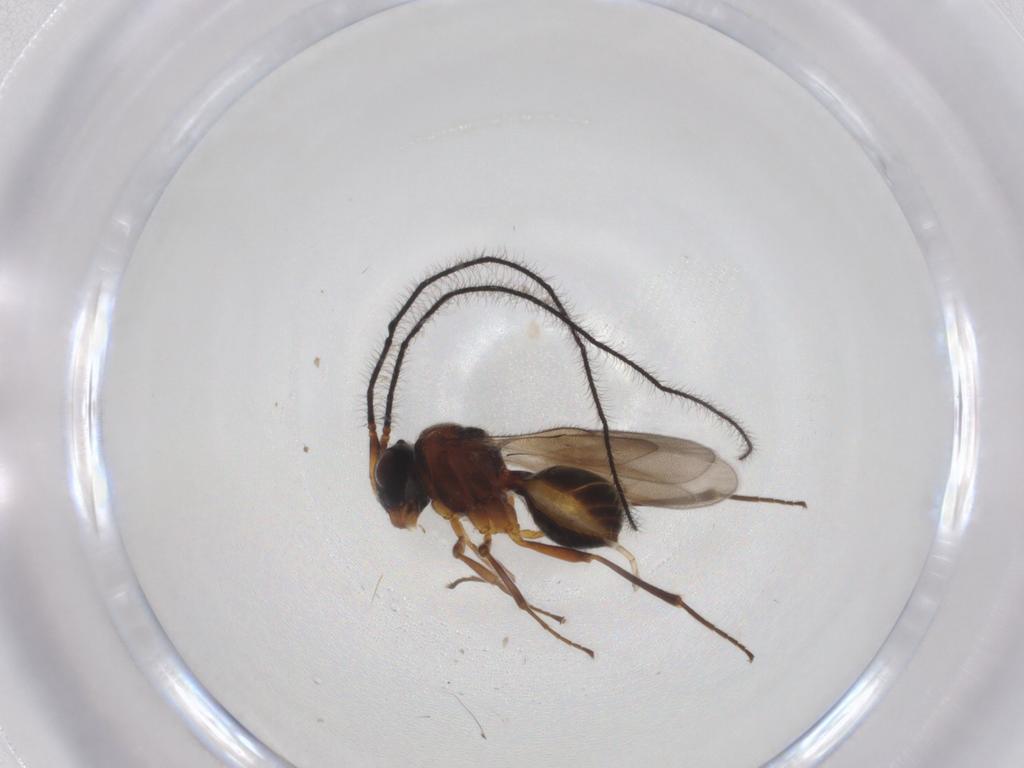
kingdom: Animalia
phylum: Arthropoda
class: Insecta
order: Hymenoptera
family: Scelionidae
